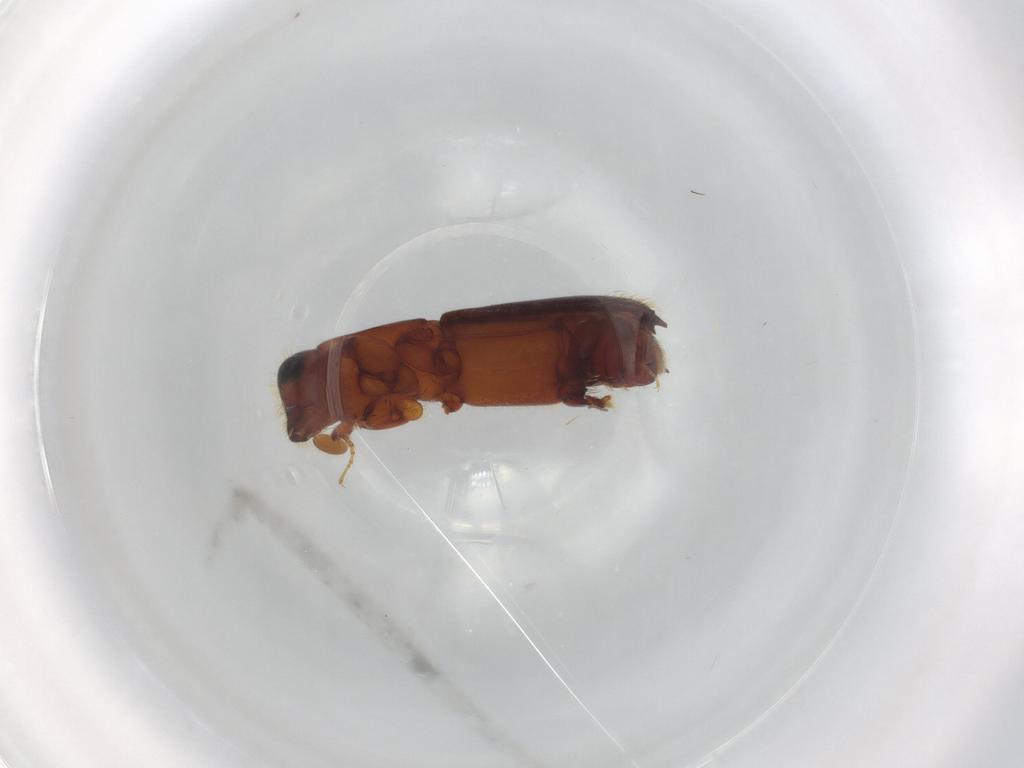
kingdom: Animalia
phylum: Arthropoda
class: Insecta
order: Coleoptera
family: Curculionidae
